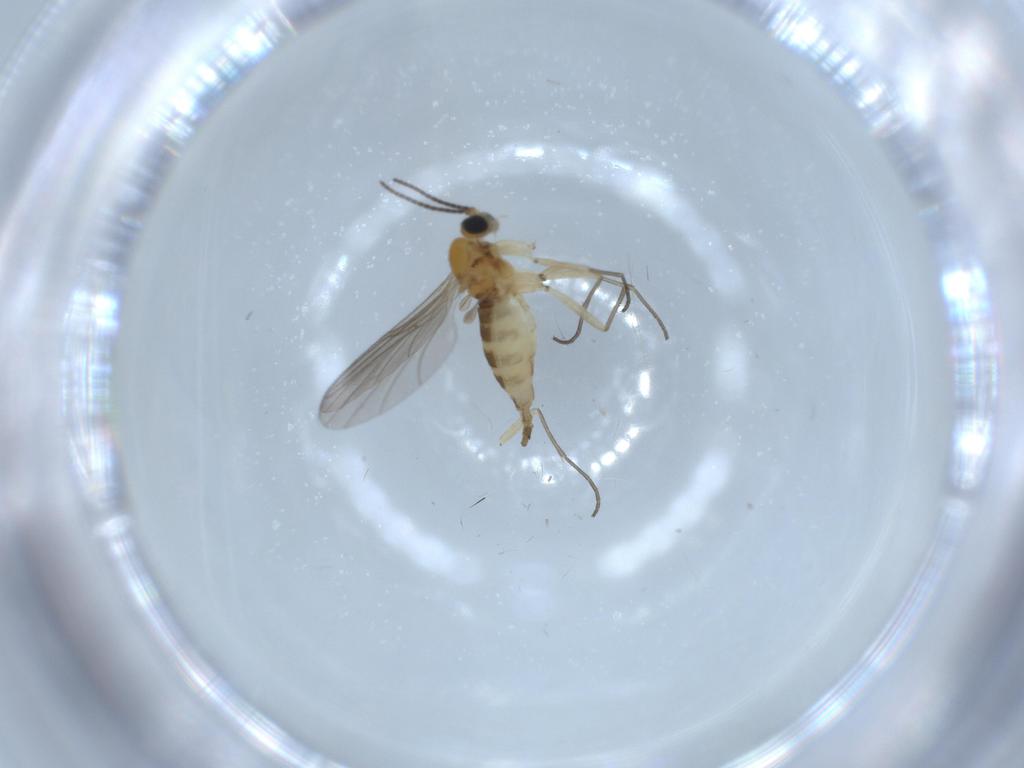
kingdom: Animalia
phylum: Arthropoda
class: Insecta
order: Diptera
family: Sciaridae
